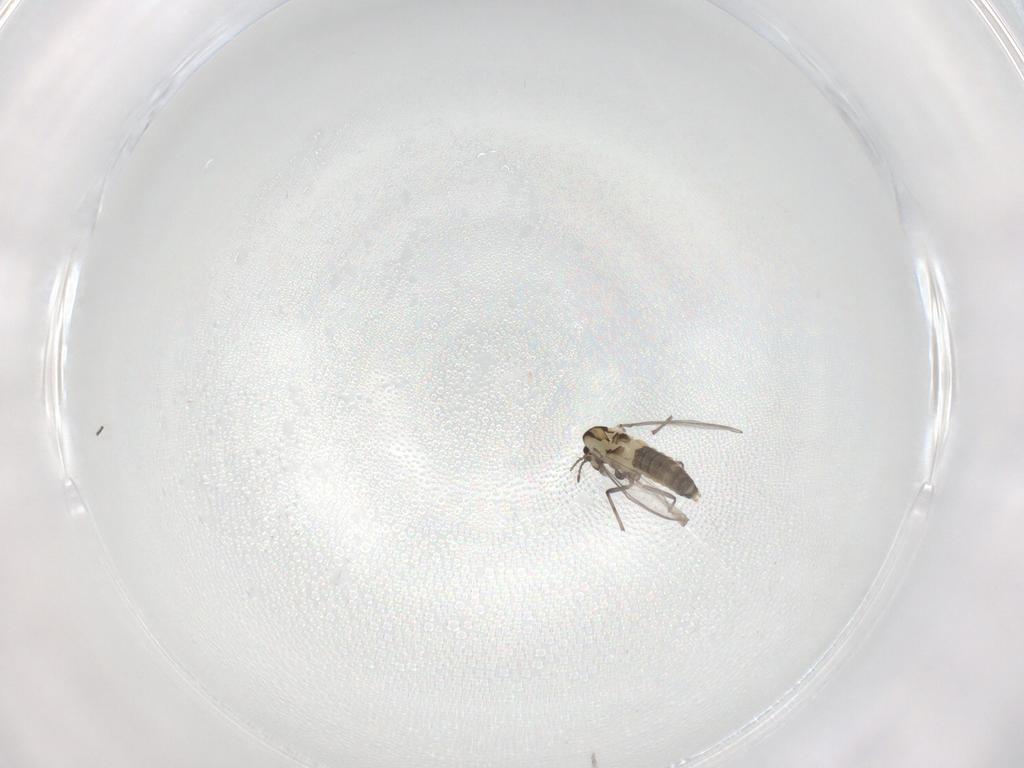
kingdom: Animalia
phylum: Arthropoda
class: Insecta
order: Diptera
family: Chironomidae
